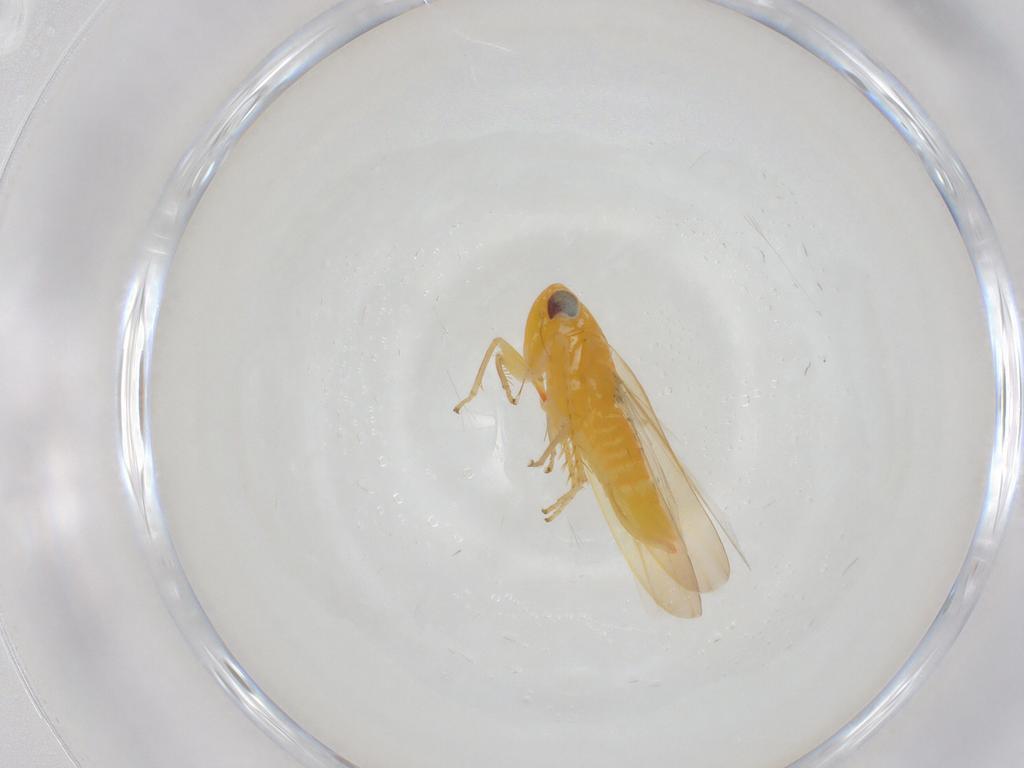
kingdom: Animalia
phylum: Arthropoda
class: Insecta
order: Hemiptera
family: Cicadellidae
